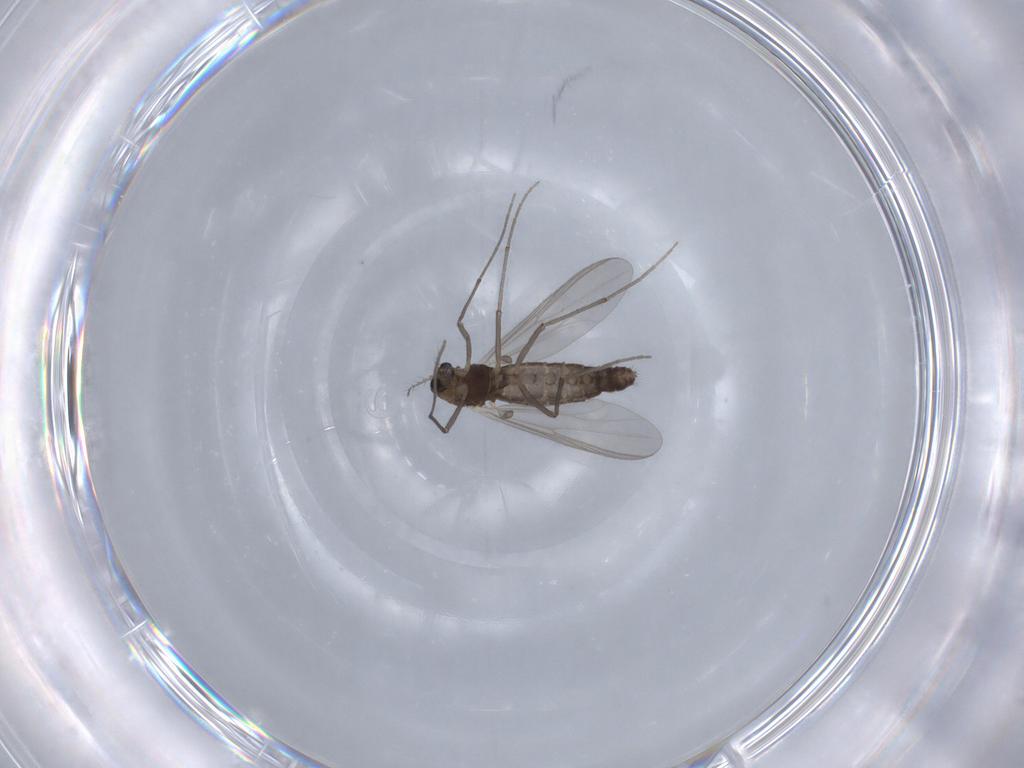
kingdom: Animalia
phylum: Arthropoda
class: Insecta
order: Diptera
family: Chironomidae
